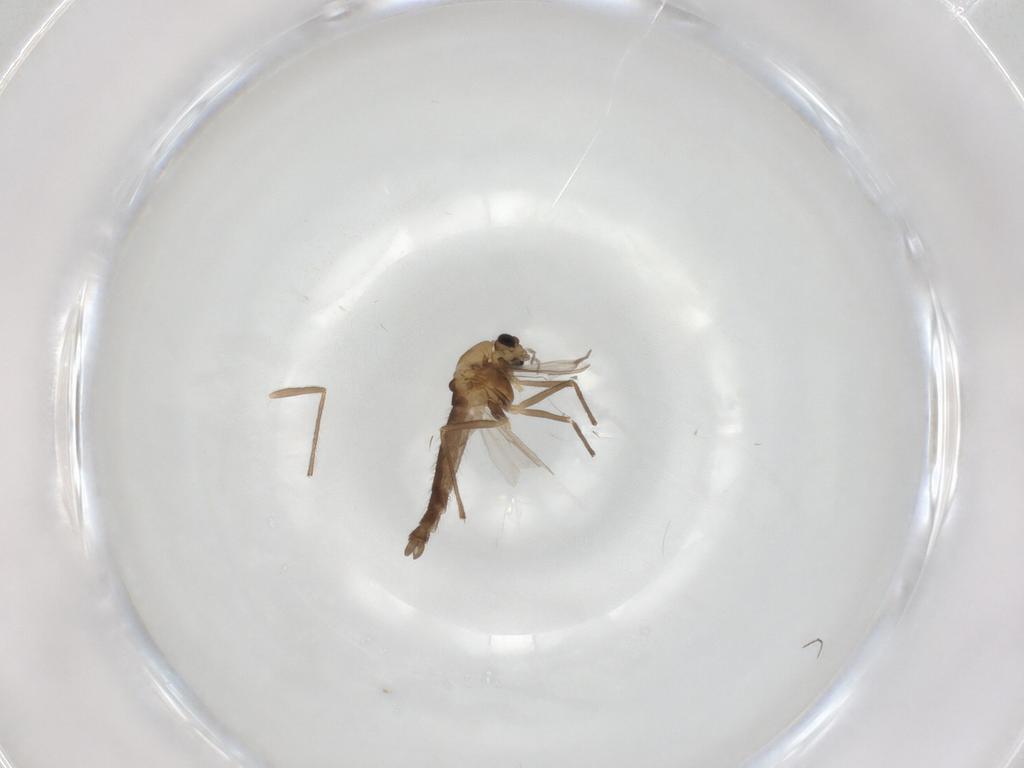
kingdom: Animalia
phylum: Arthropoda
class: Insecta
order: Diptera
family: Chironomidae
